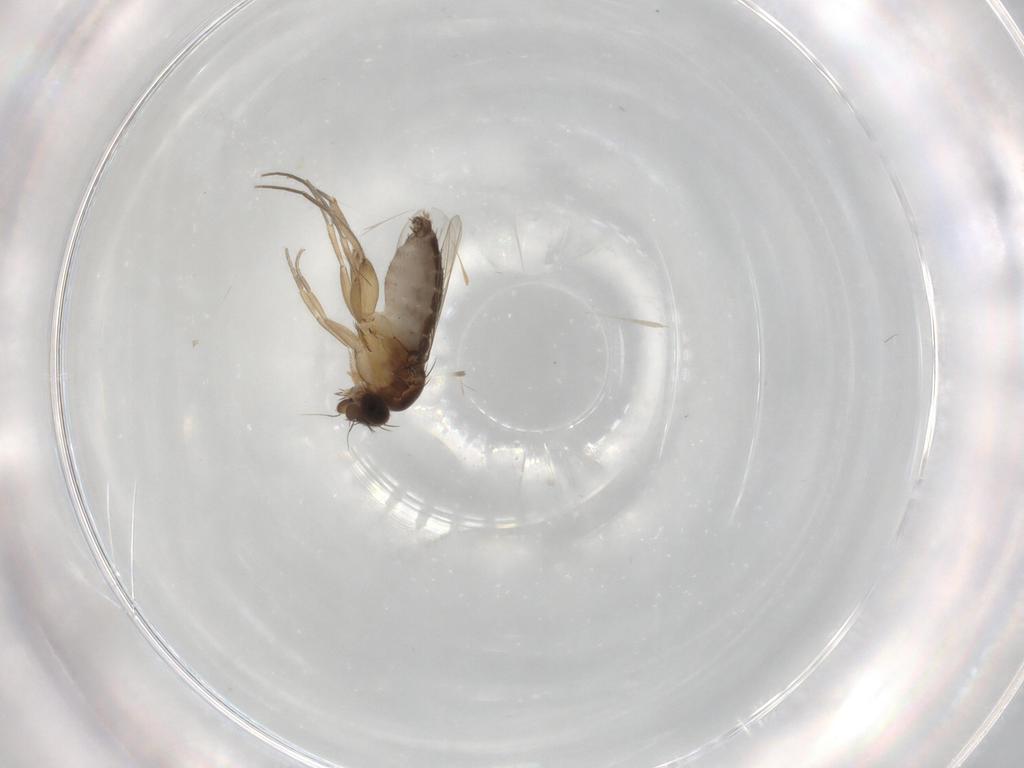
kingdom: Animalia
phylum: Arthropoda
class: Insecta
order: Diptera
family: Phoridae
